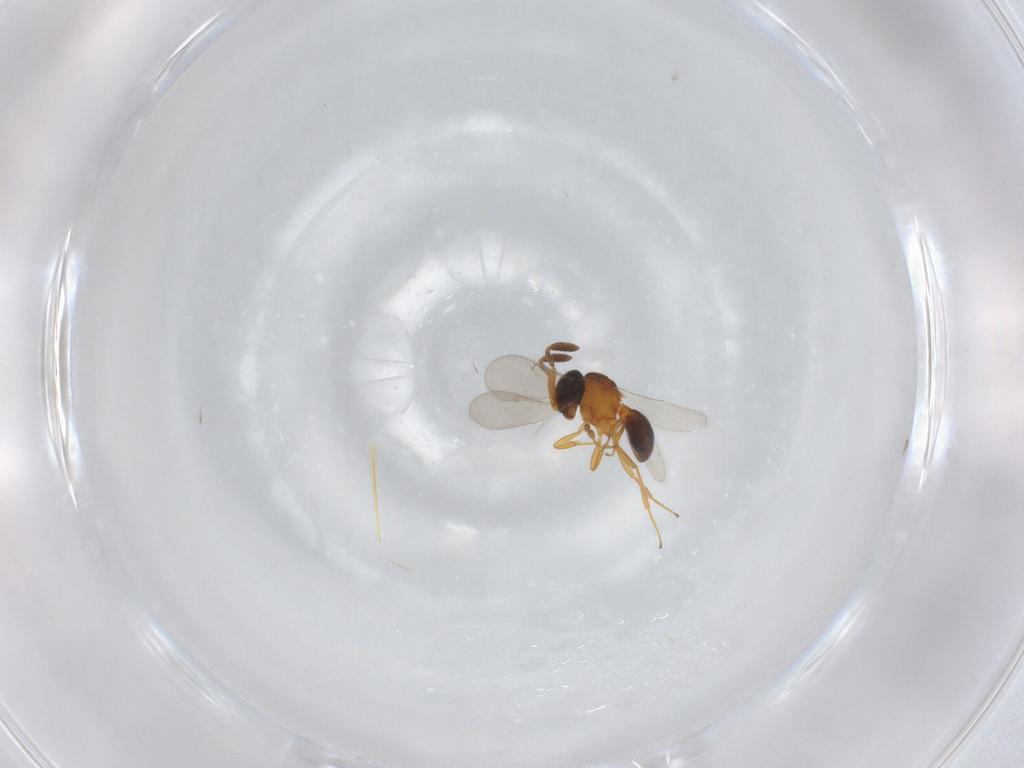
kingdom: Animalia
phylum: Arthropoda
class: Insecta
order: Hymenoptera
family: Scelionidae
